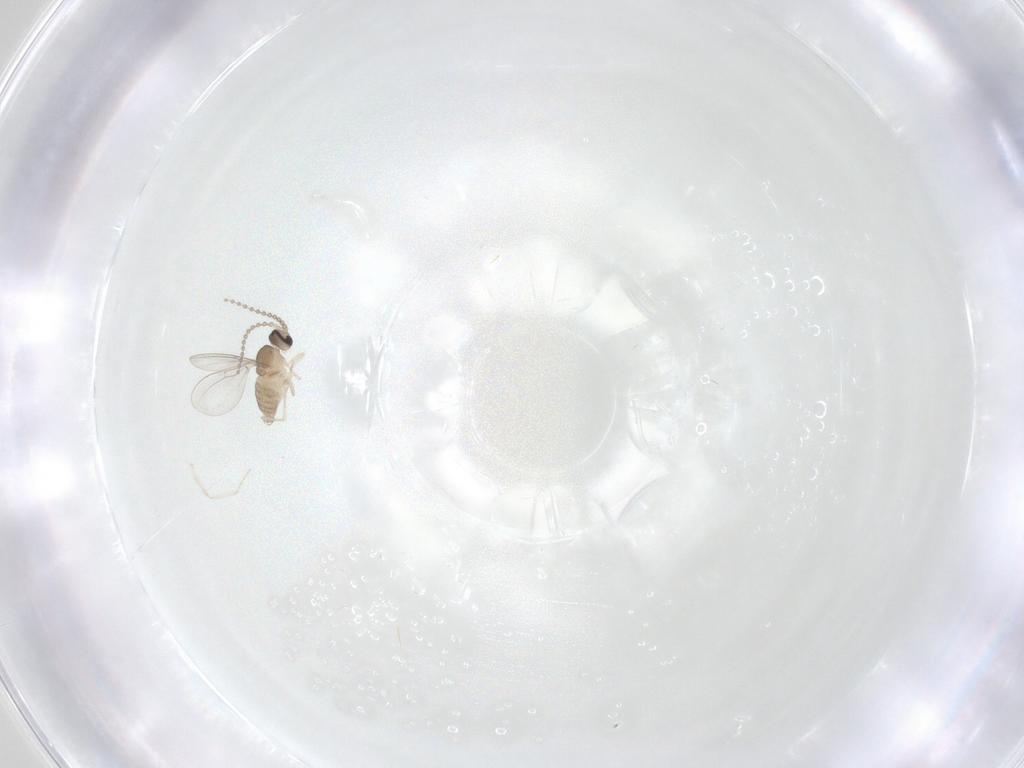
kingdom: Animalia
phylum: Arthropoda
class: Insecta
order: Diptera
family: Cecidomyiidae
